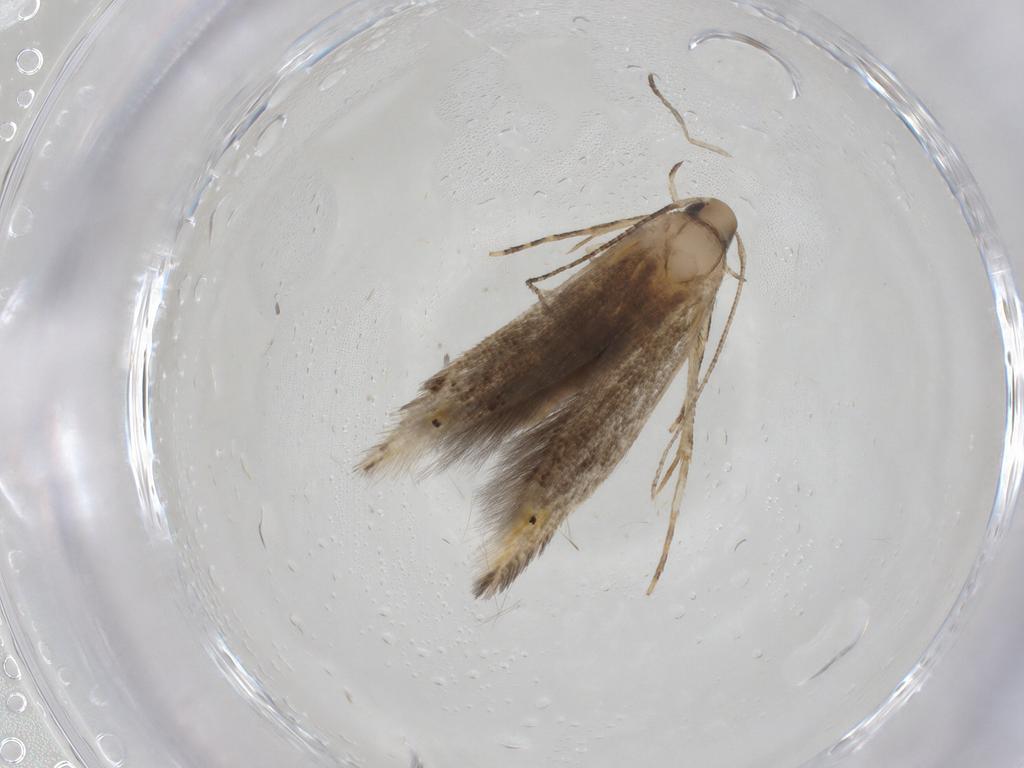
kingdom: Animalia
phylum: Arthropoda
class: Insecta
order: Lepidoptera
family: Cosmopterigidae
